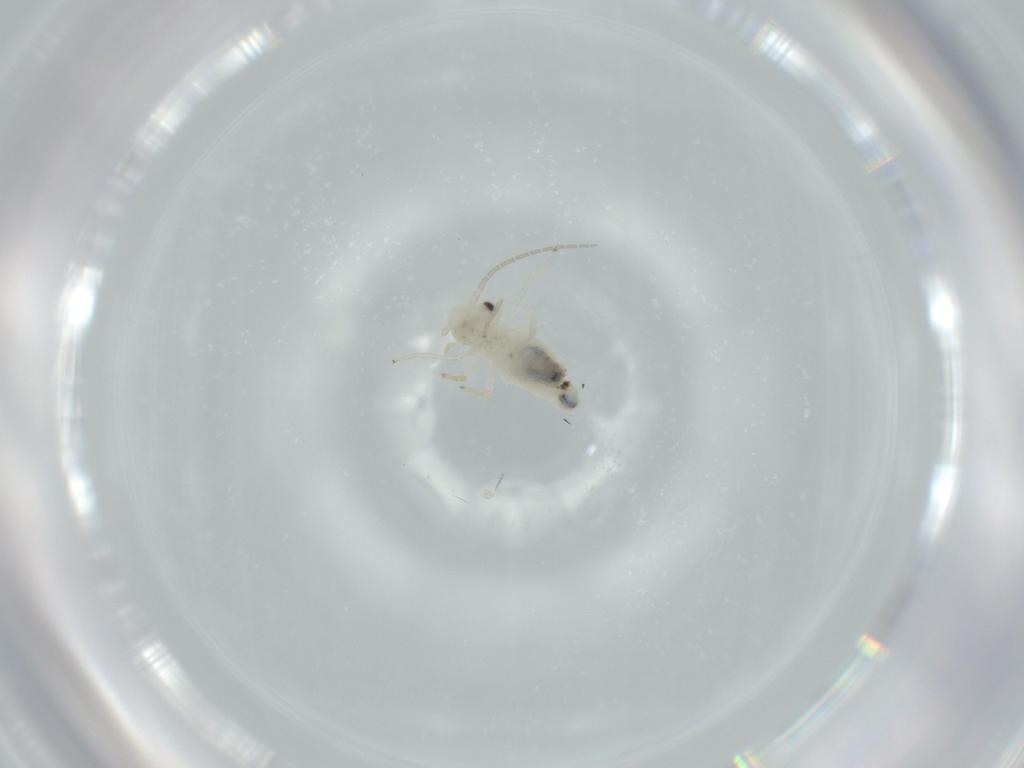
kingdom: Animalia
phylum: Arthropoda
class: Insecta
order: Psocodea
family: Caeciliusidae
